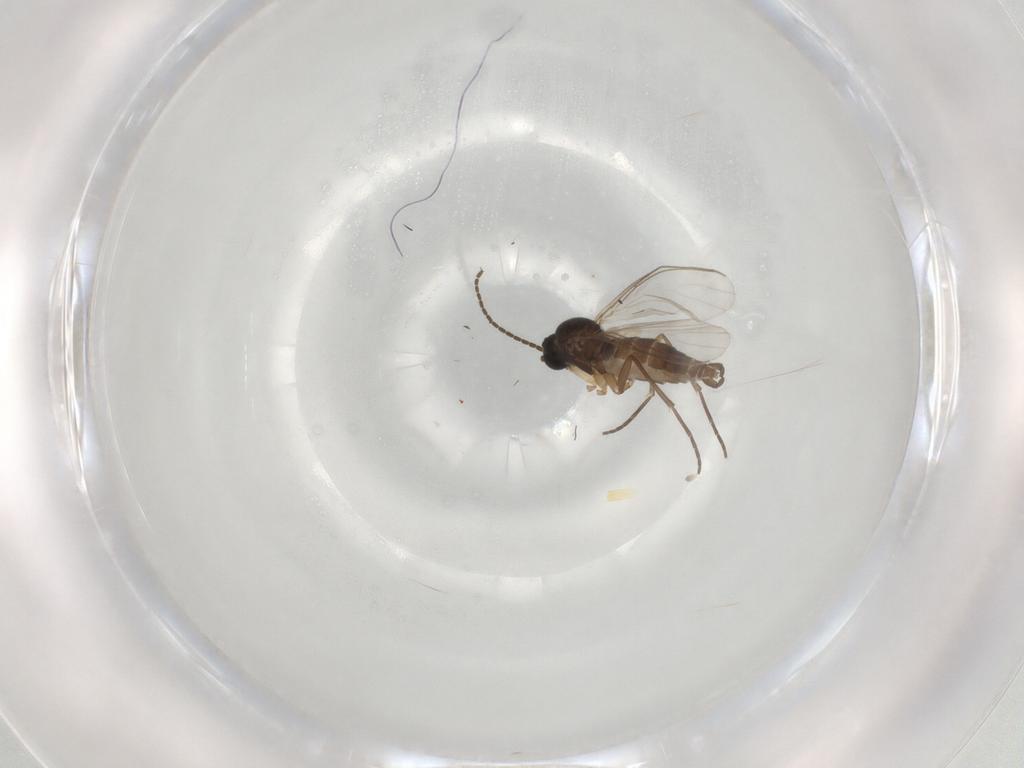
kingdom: Animalia
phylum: Arthropoda
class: Insecta
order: Diptera
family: Sciaridae
